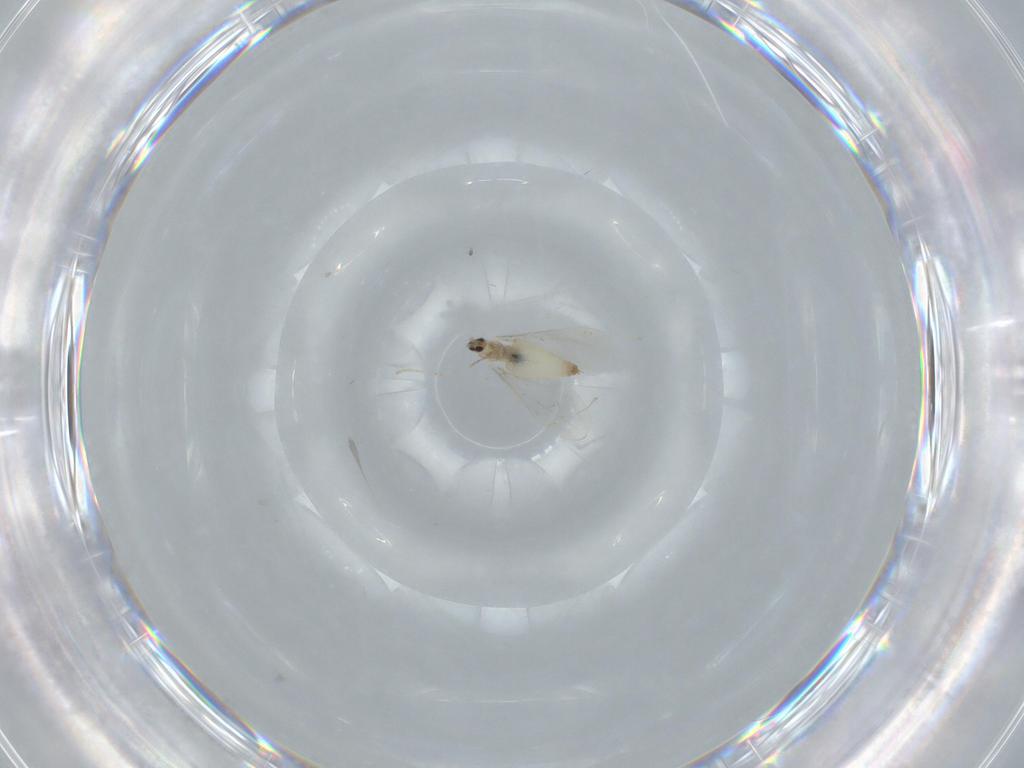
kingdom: Animalia
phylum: Arthropoda
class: Insecta
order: Diptera
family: Cecidomyiidae
